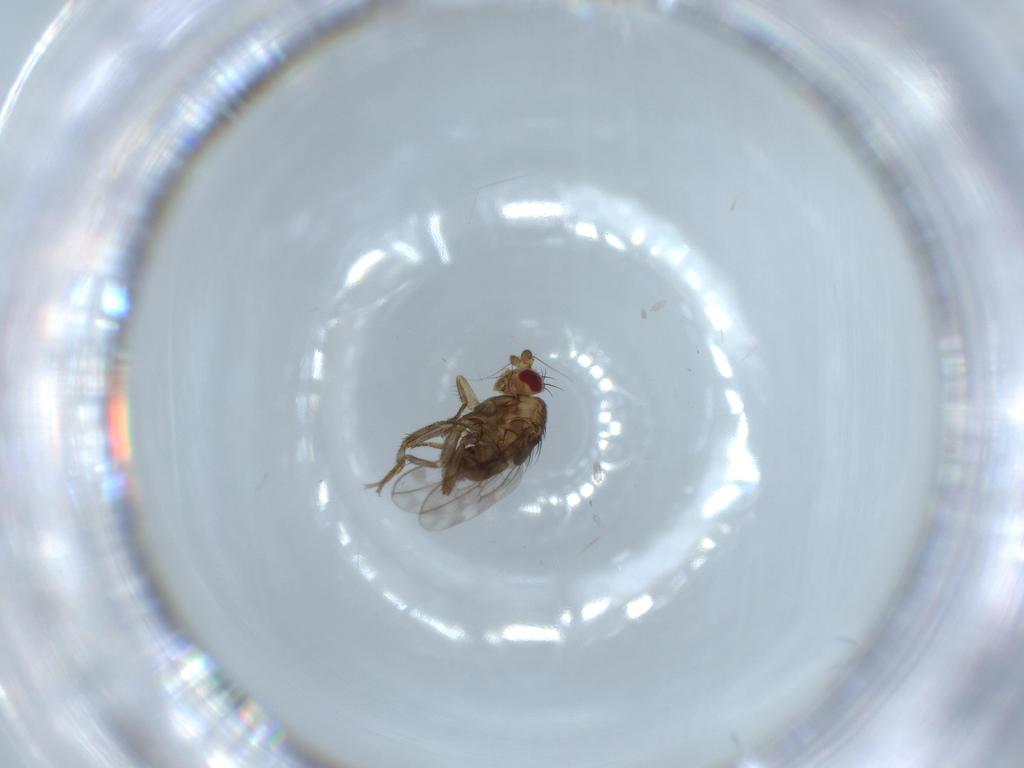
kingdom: Animalia
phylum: Arthropoda
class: Insecta
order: Diptera
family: Sphaeroceridae
